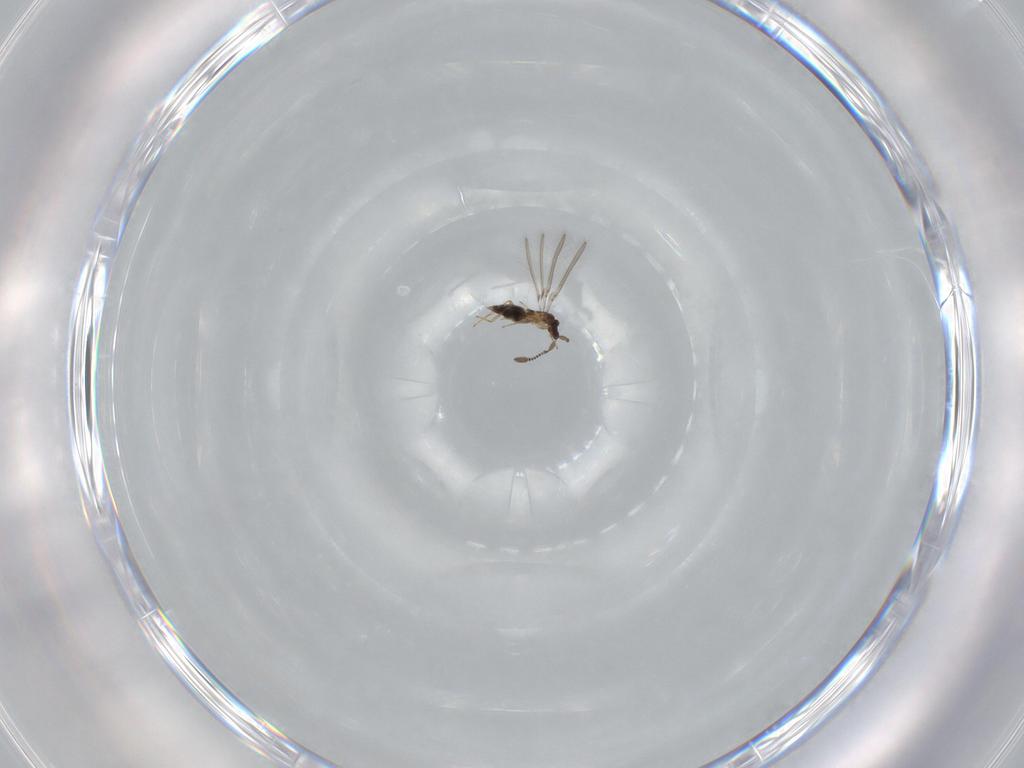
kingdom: Animalia
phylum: Arthropoda
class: Insecta
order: Hymenoptera
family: Mymaridae
